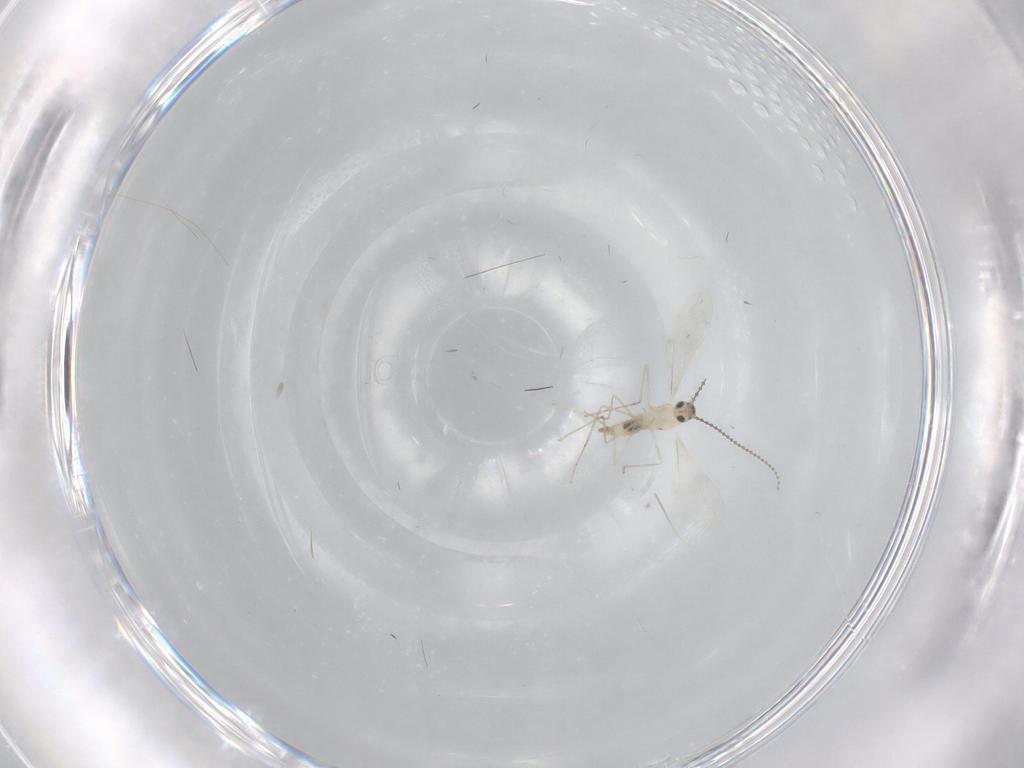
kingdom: Animalia
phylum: Arthropoda
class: Insecta
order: Diptera
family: Cecidomyiidae
